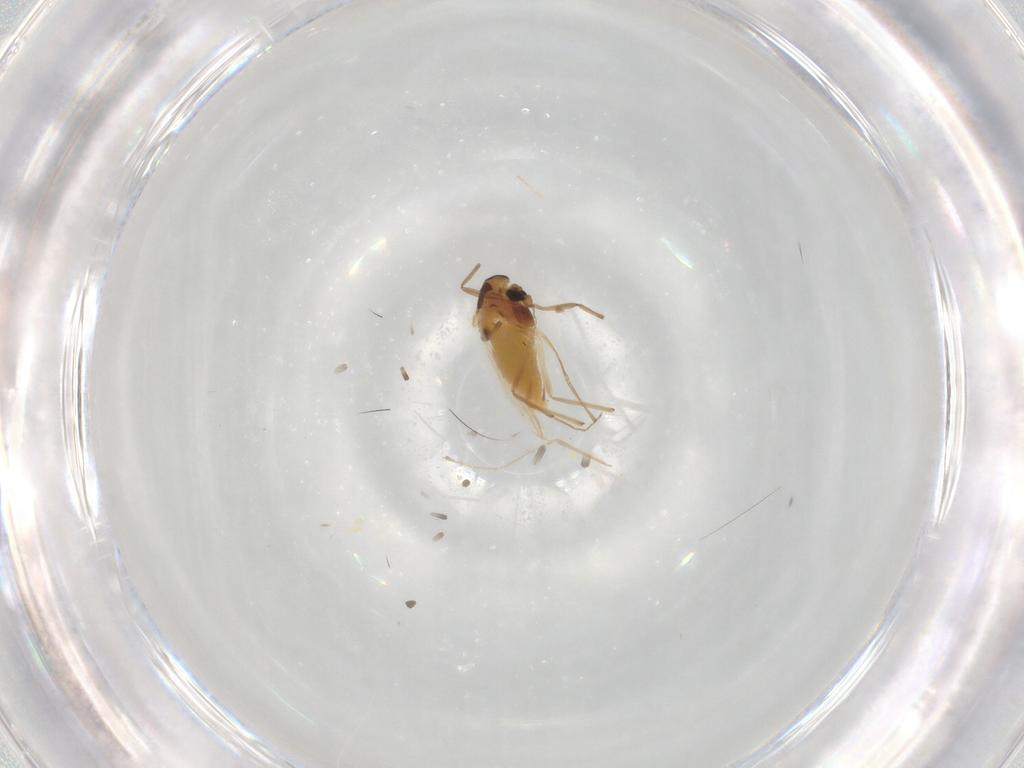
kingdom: Animalia
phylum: Arthropoda
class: Insecta
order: Diptera
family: Chironomidae
